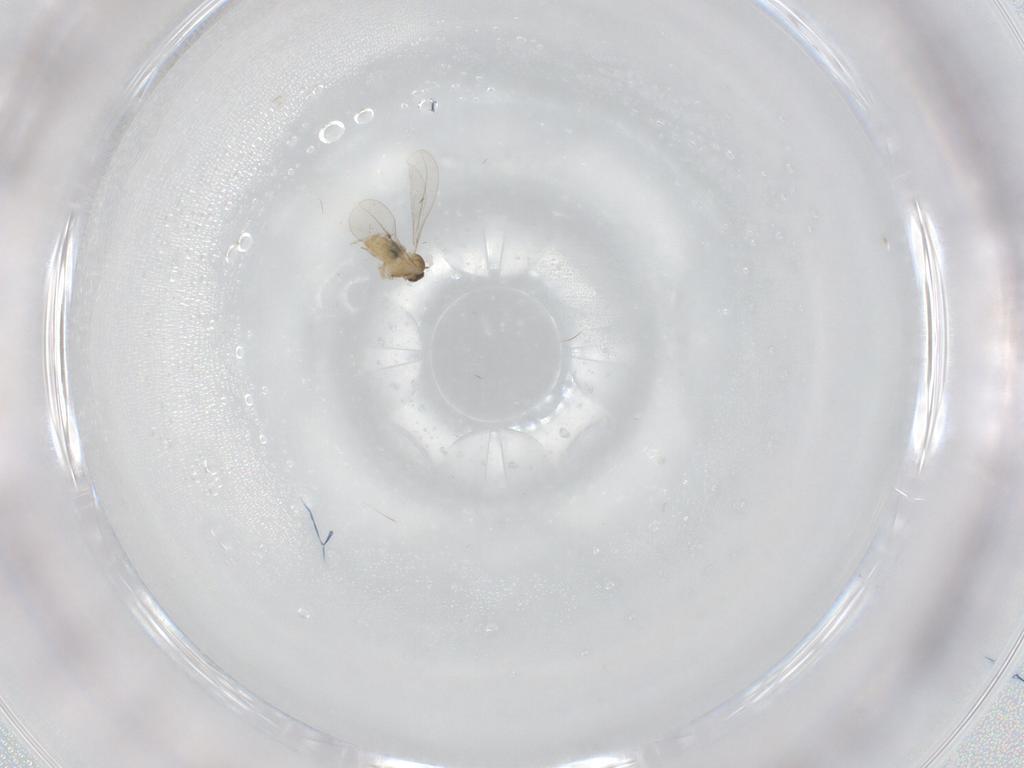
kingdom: Animalia
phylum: Arthropoda
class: Insecta
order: Diptera
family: Cecidomyiidae
